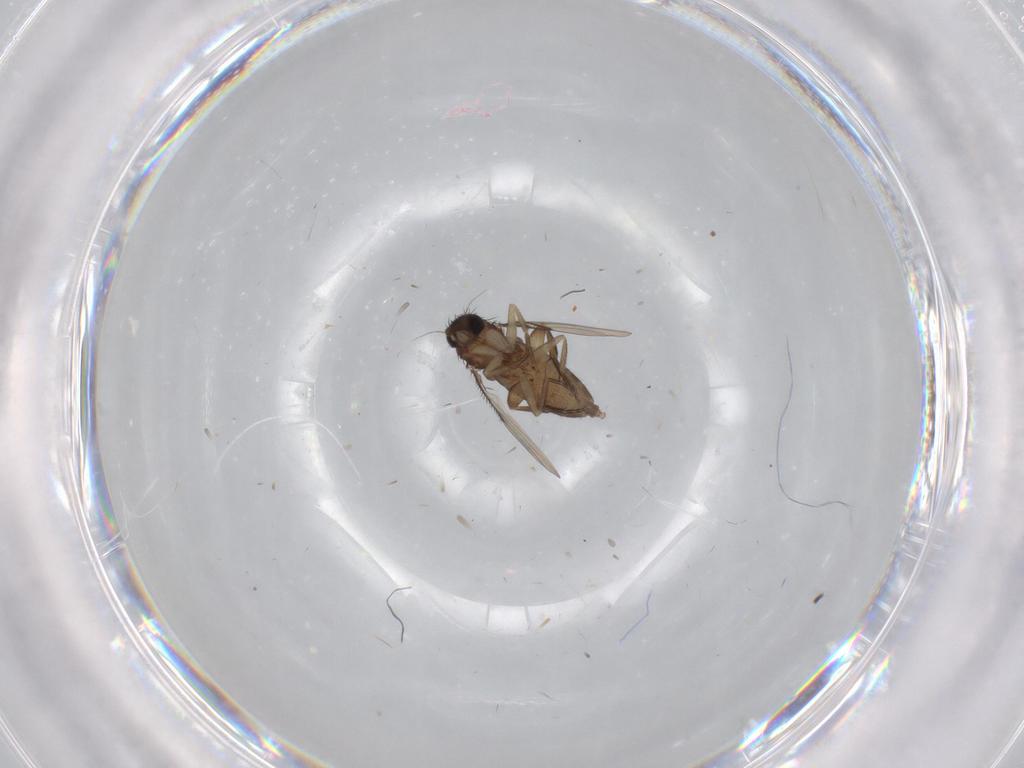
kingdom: Animalia
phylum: Arthropoda
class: Insecta
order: Diptera
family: Phoridae
